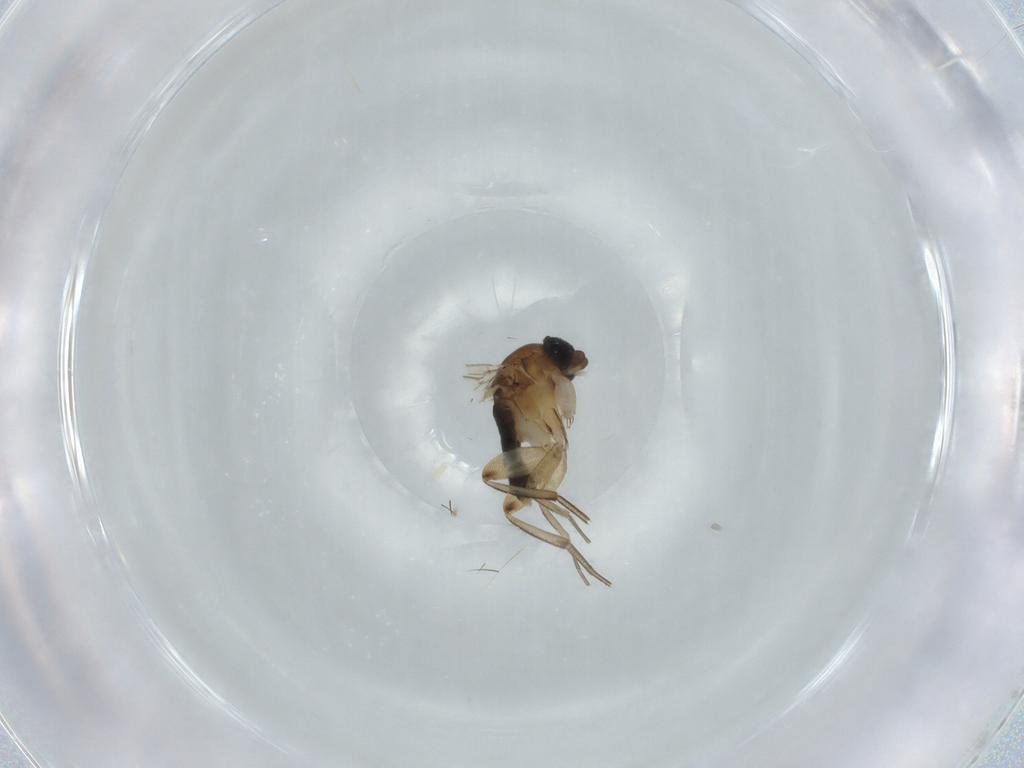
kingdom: Animalia
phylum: Arthropoda
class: Insecta
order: Diptera
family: Phoridae
